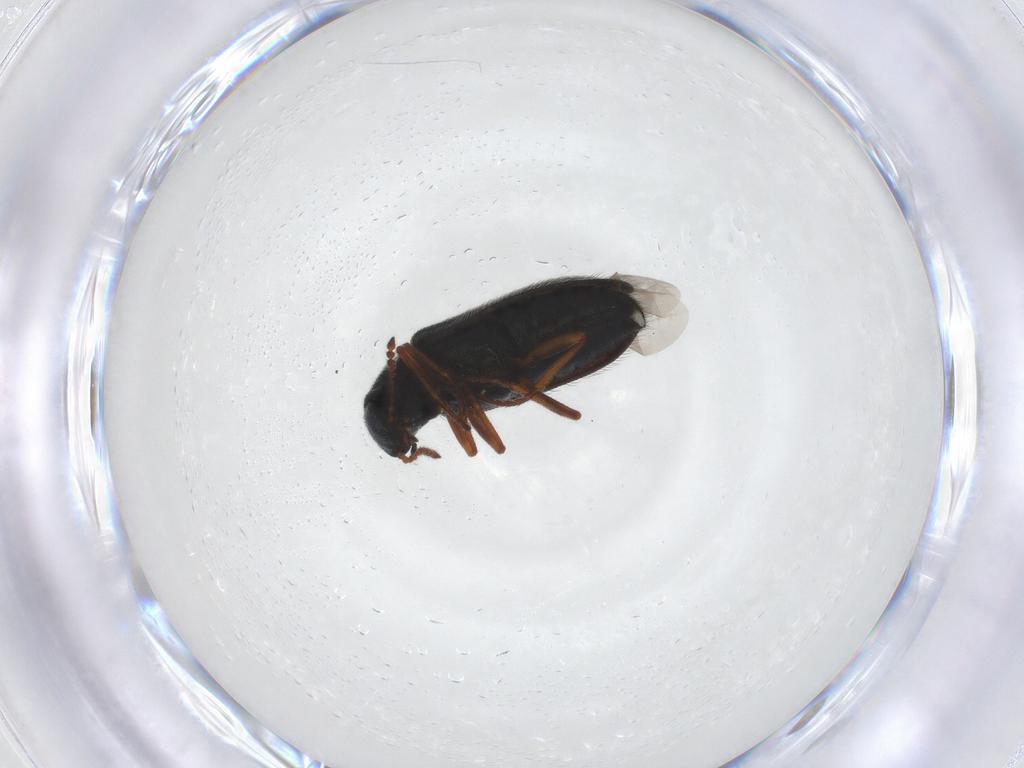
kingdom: Animalia
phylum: Arthropoda
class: Insecta
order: Coleoptera
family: Melyridae
